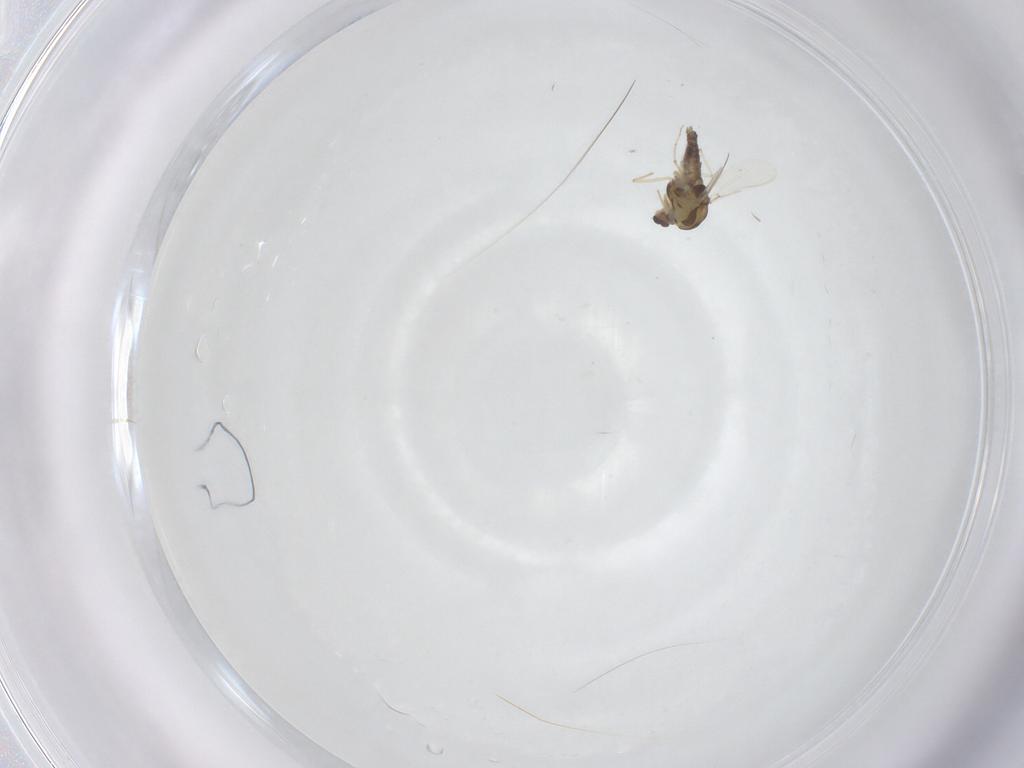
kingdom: Animalia
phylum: Arthropoda
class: Insecta
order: Diptera
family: Chironomidae
